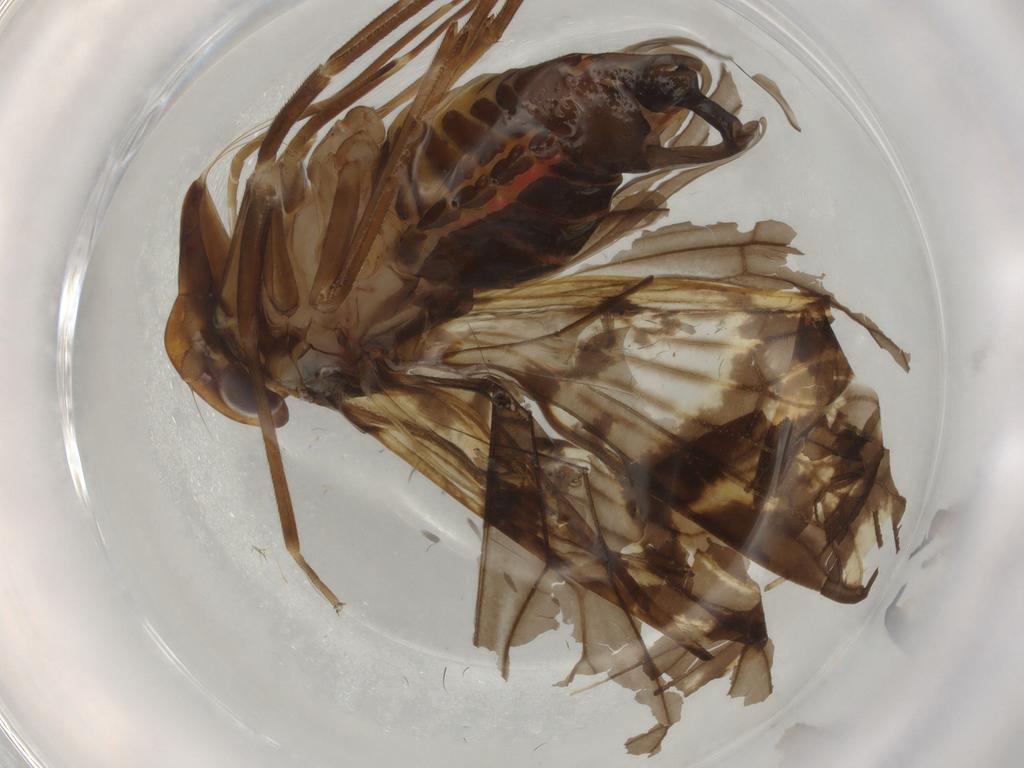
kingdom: Animalia
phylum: Arthropoda
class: Insecta
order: Hemiptera
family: Cixiidae
